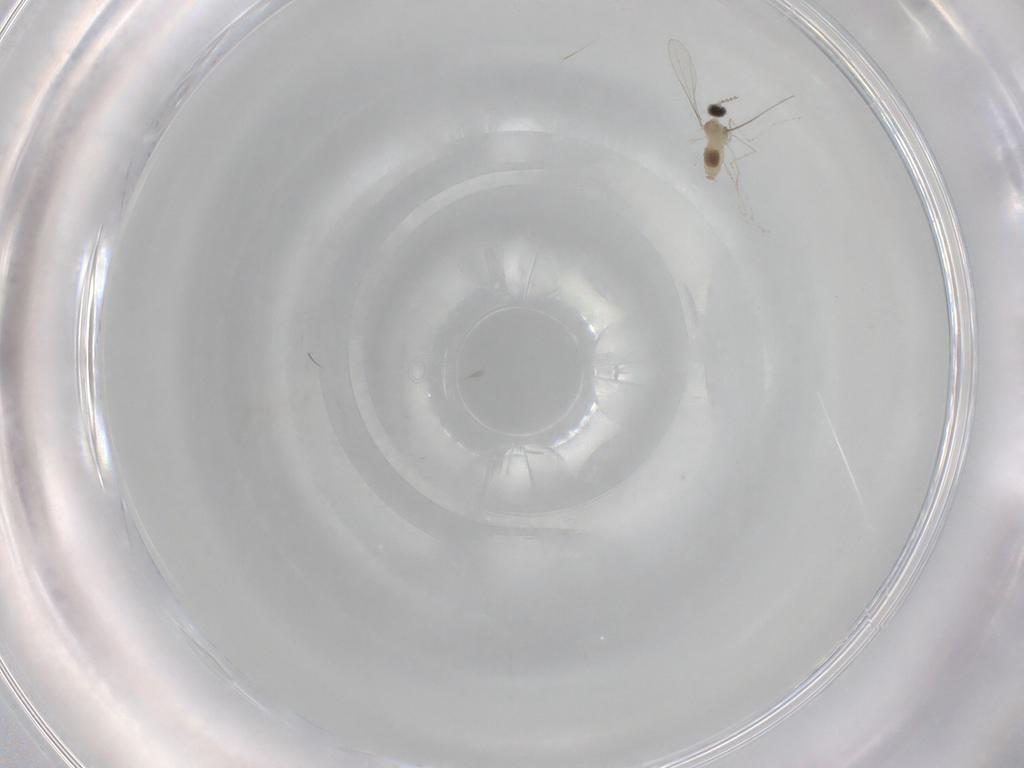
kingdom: Animalia
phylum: Arthropoda
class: Insecta
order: Diptera
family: Cecidomyiidae
